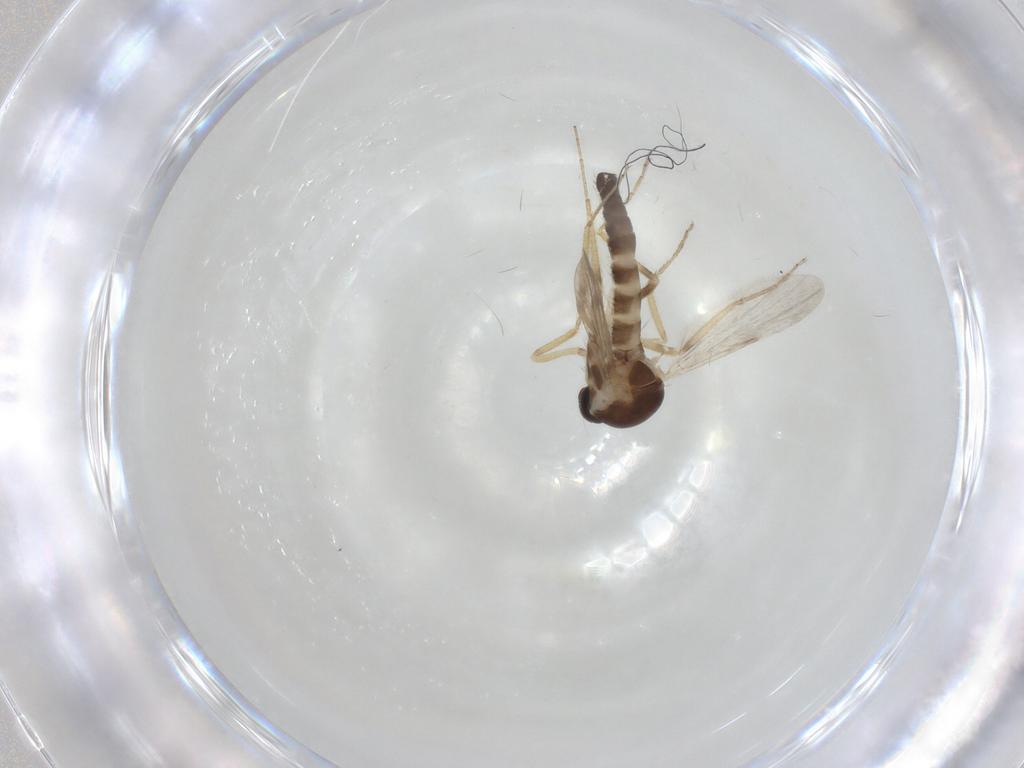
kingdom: Animalia
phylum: Arthropoda
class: Insecta
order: Diptera
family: Ceratopogonidae
